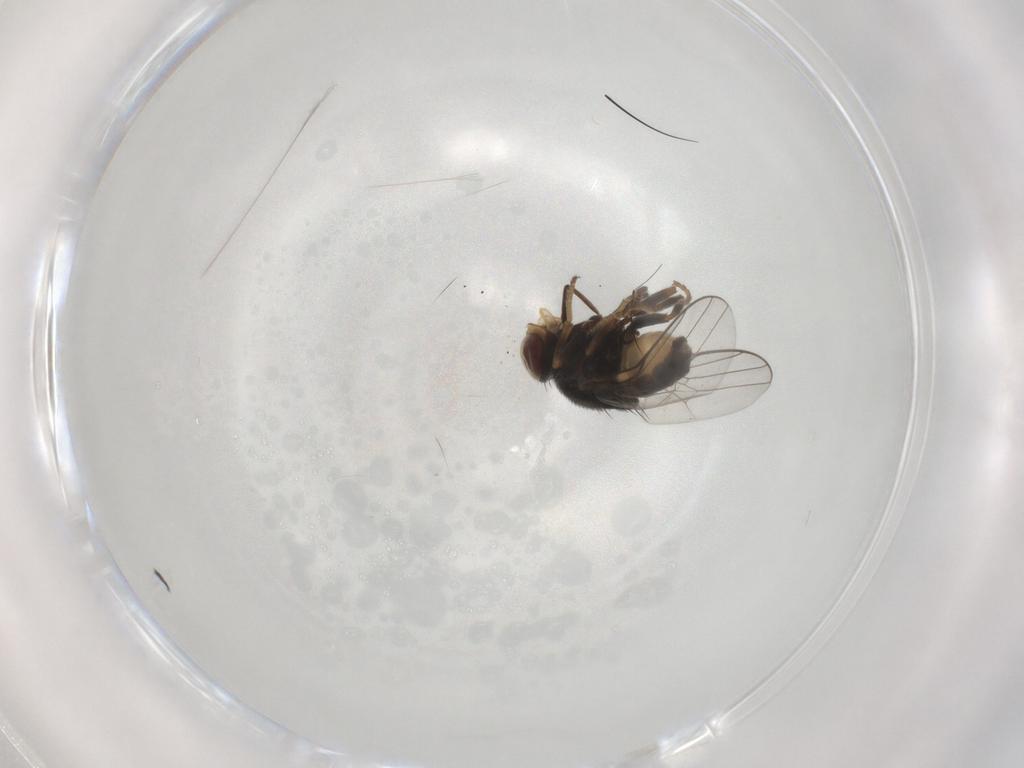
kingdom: Animalia
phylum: Arthropoda
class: Insecta
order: Diptera
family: Chloropidae
